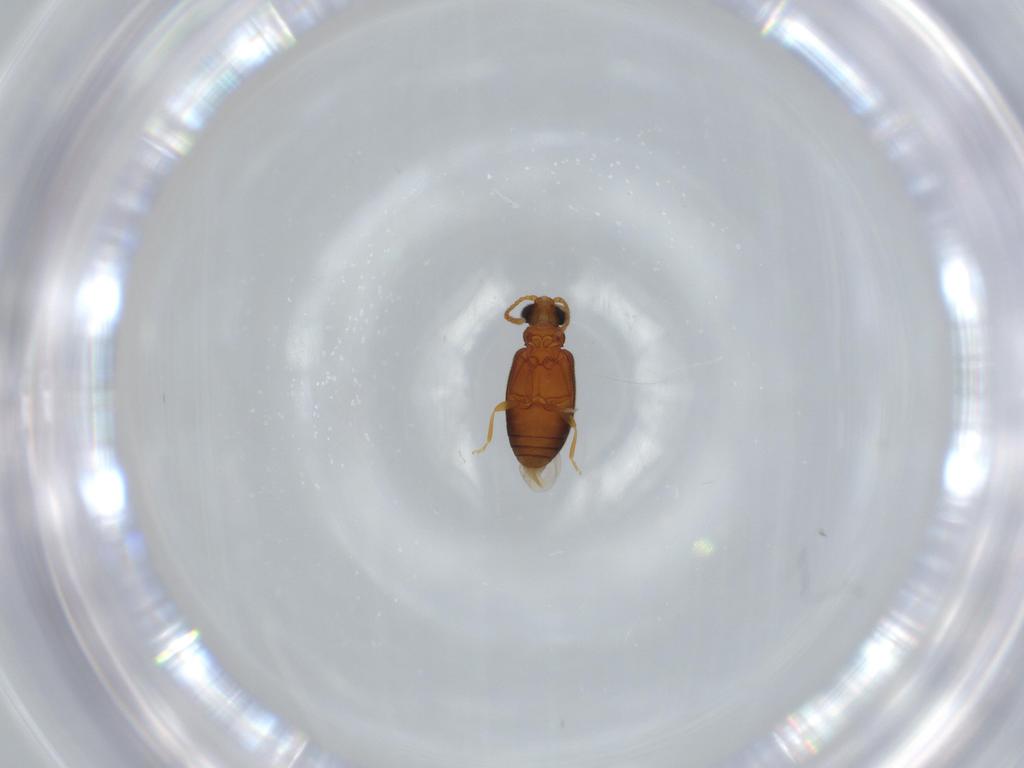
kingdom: Animalia
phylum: Arthropoda
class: Insecta
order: Coleoptera
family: Aderidae
